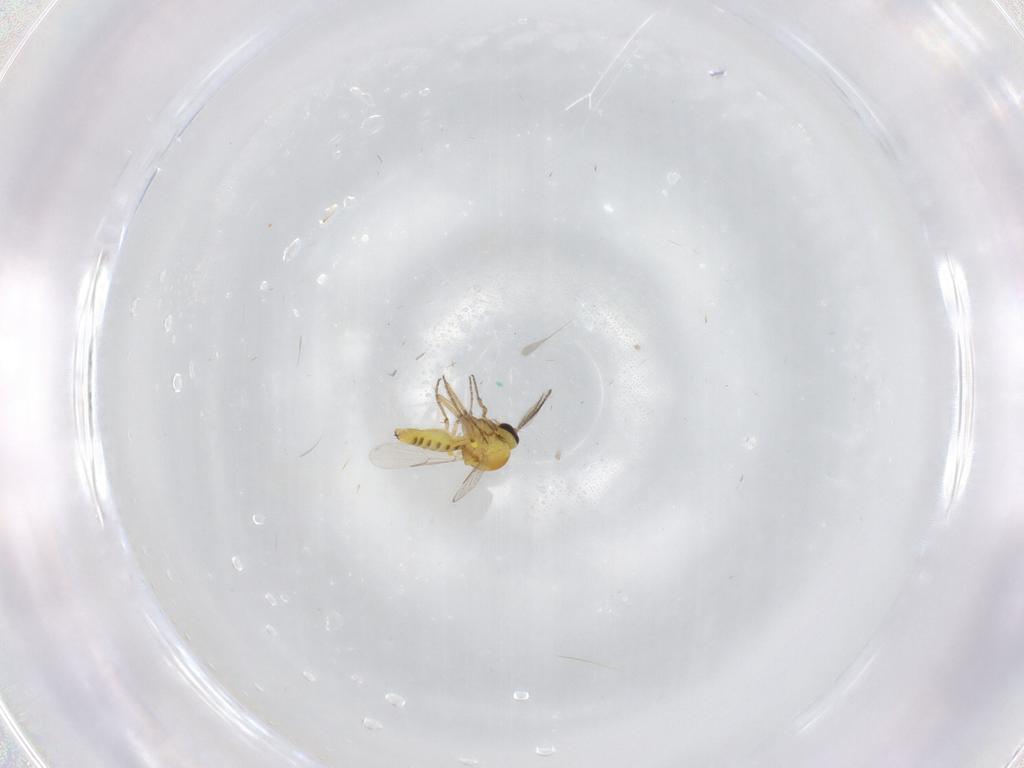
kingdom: Animalia
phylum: Arthropoda
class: Insecta
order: Diptera
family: Ceratopogonidae
